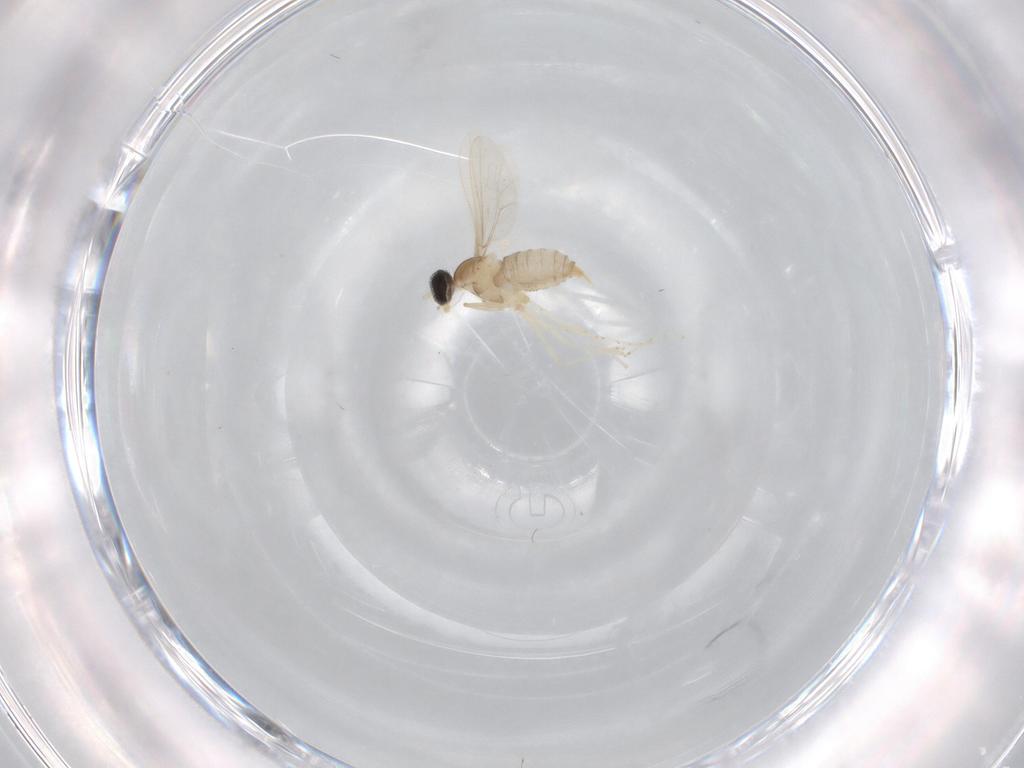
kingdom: Animalia
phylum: Arthropoda
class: Insecta
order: Diptera
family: Cecidomyiidae
